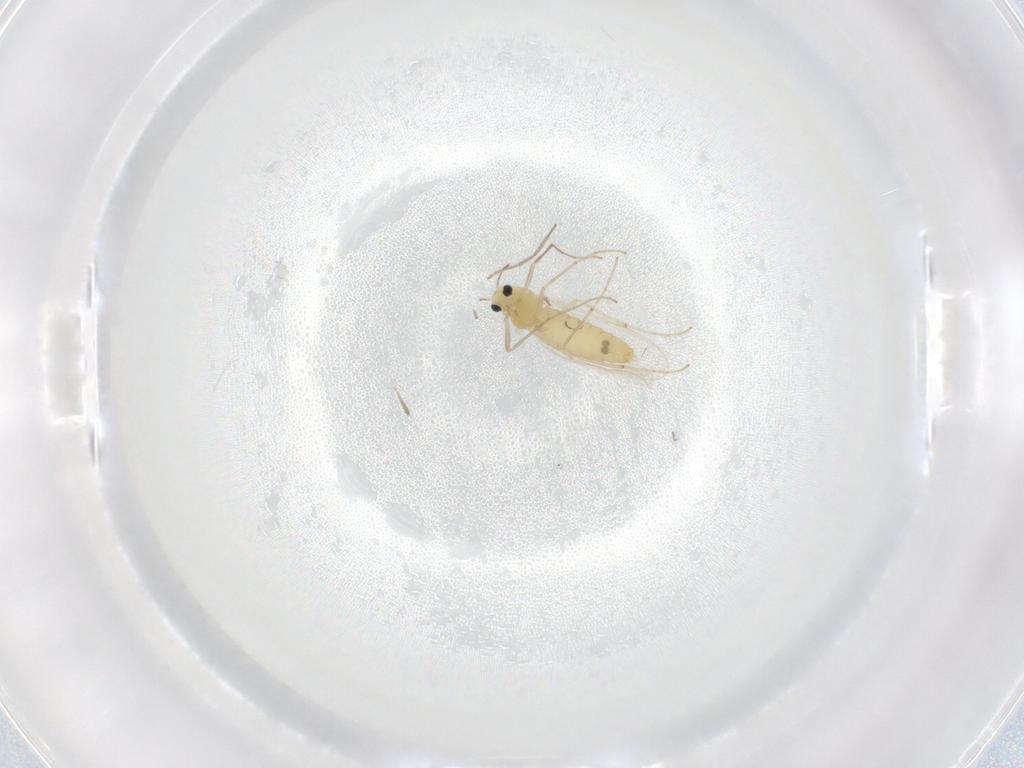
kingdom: Animalia
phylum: Arthropoda
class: Insecta
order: Diptera
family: Chironomidae
